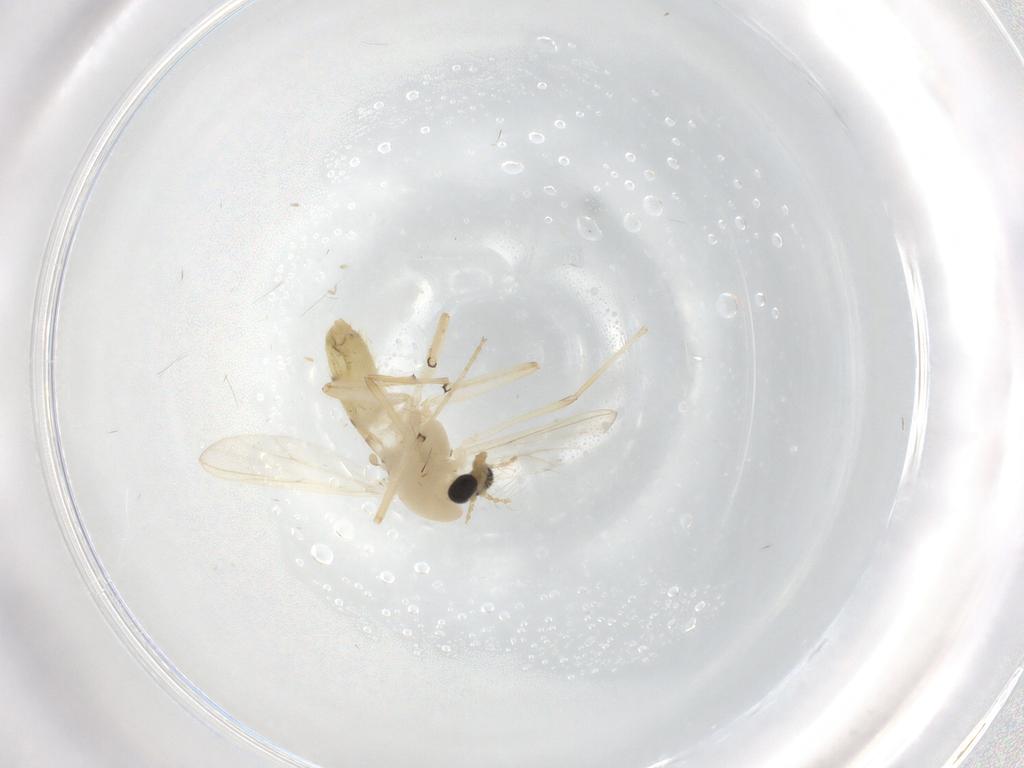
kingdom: Animalia
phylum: Arthropoda
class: Insecta
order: Diptera
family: Chironomidae
